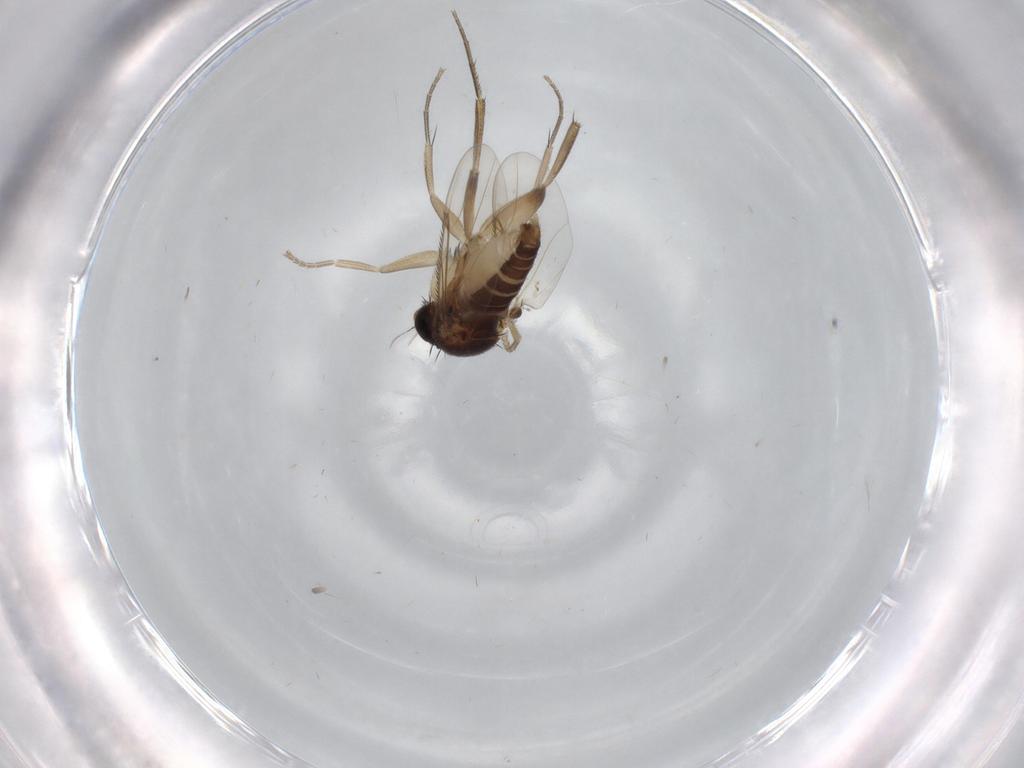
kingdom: Animalia
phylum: Arthropoda
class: Insecta
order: Diptera
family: Phoridae
